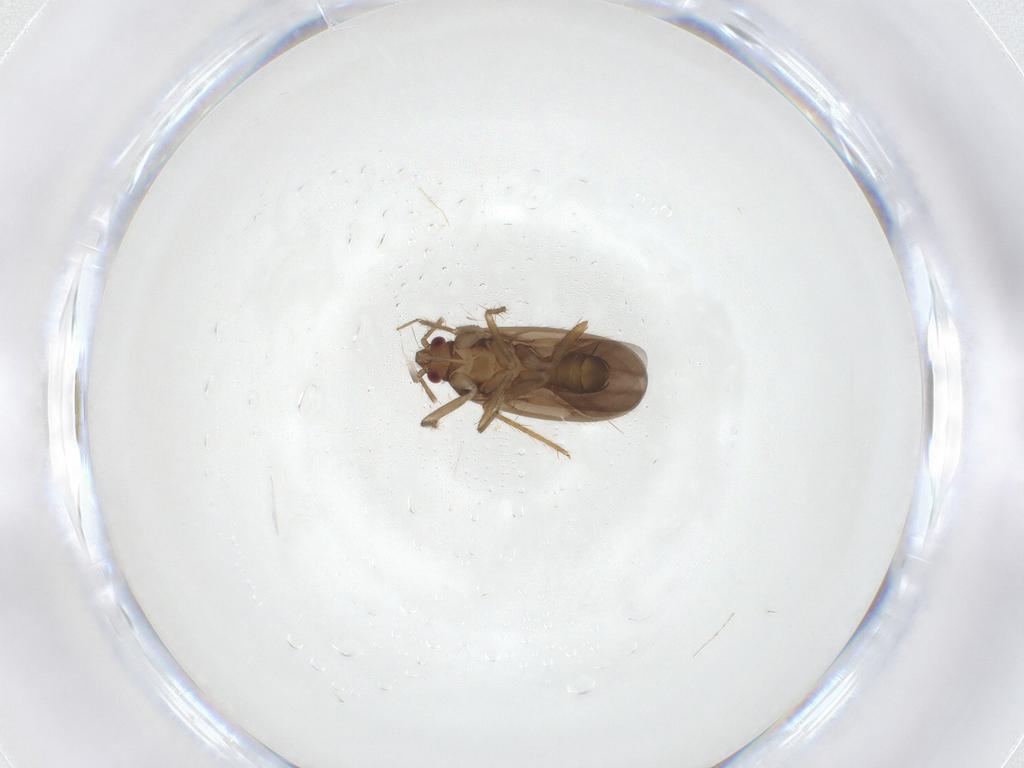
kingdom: Animalia
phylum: Arthropoda
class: Insecta
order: Hemiptera
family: Ceratocombidae
